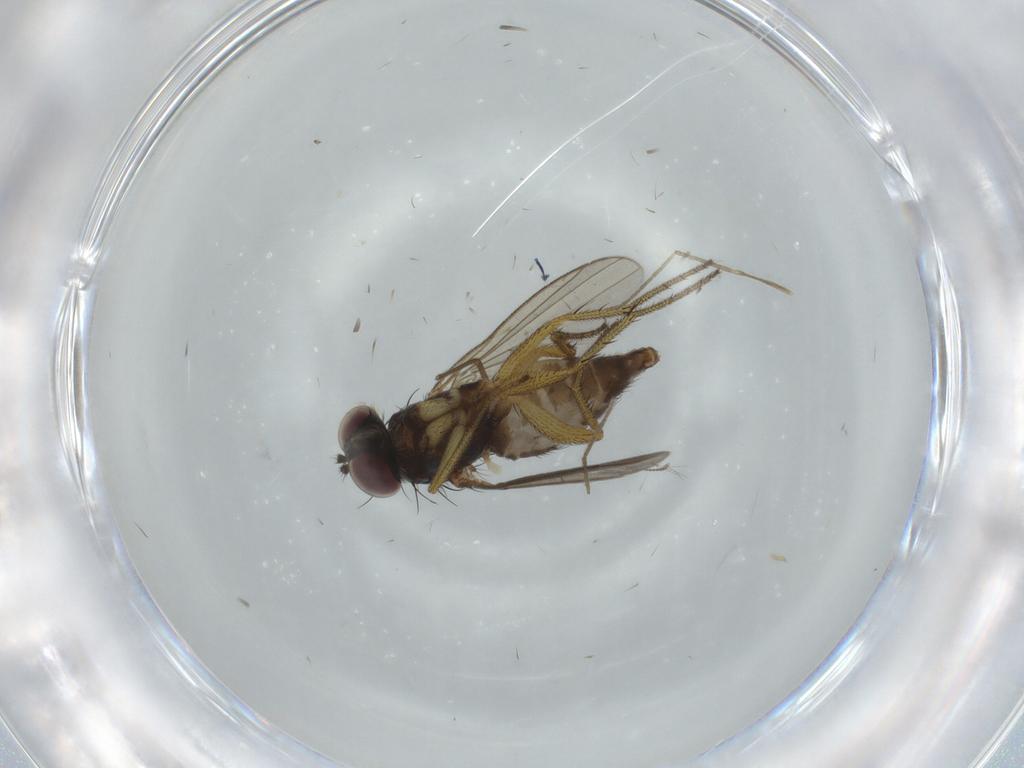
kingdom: Animalia
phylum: Arthropoda
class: Insecta
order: Diptera
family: Dolichopodidae
